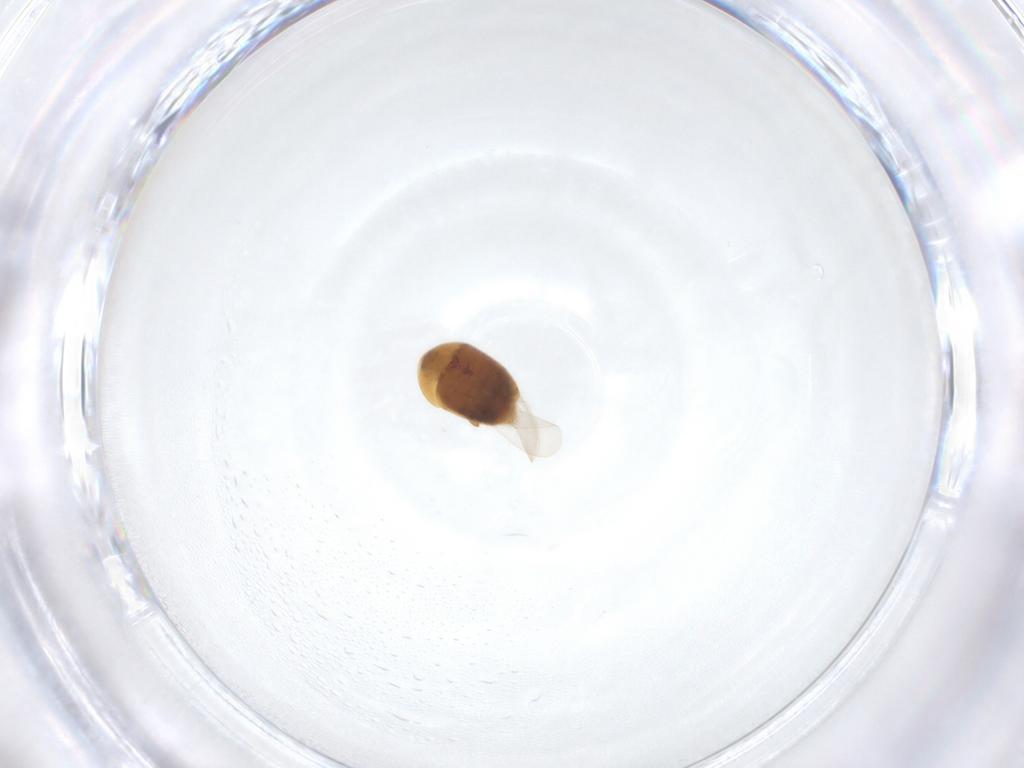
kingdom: Animalia
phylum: Arthropoda
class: Insecta
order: Coleoptera
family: Corylophidae
